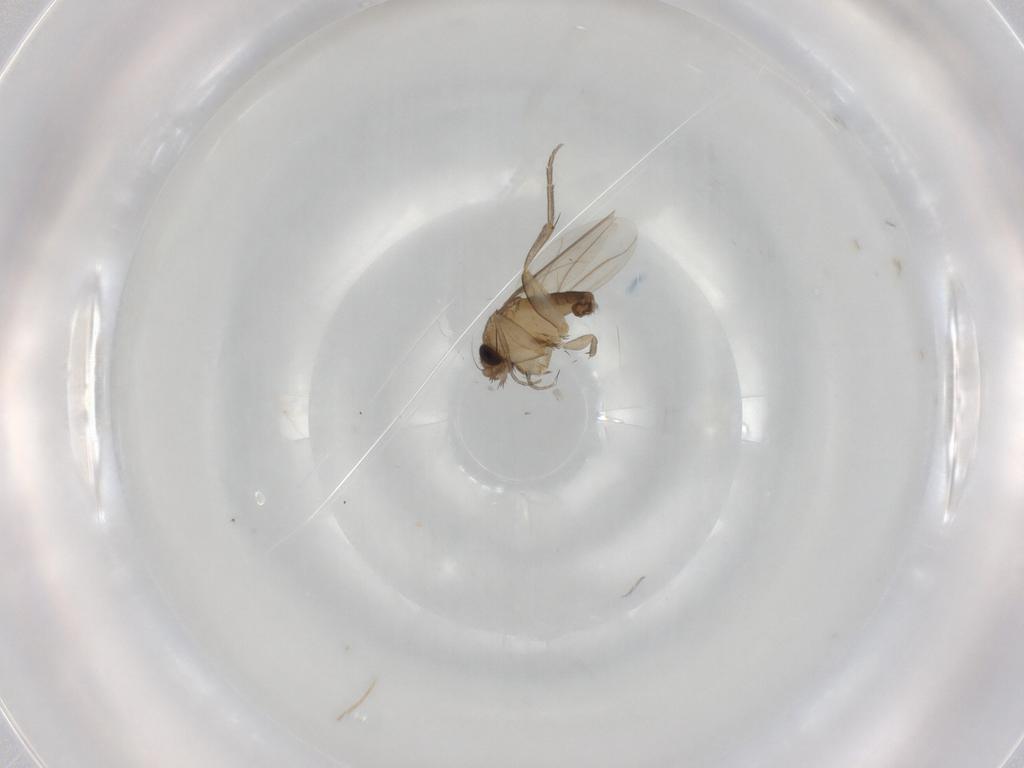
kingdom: Animalia
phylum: Arthropoda
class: Insecta
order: Diptera
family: Phoridae
